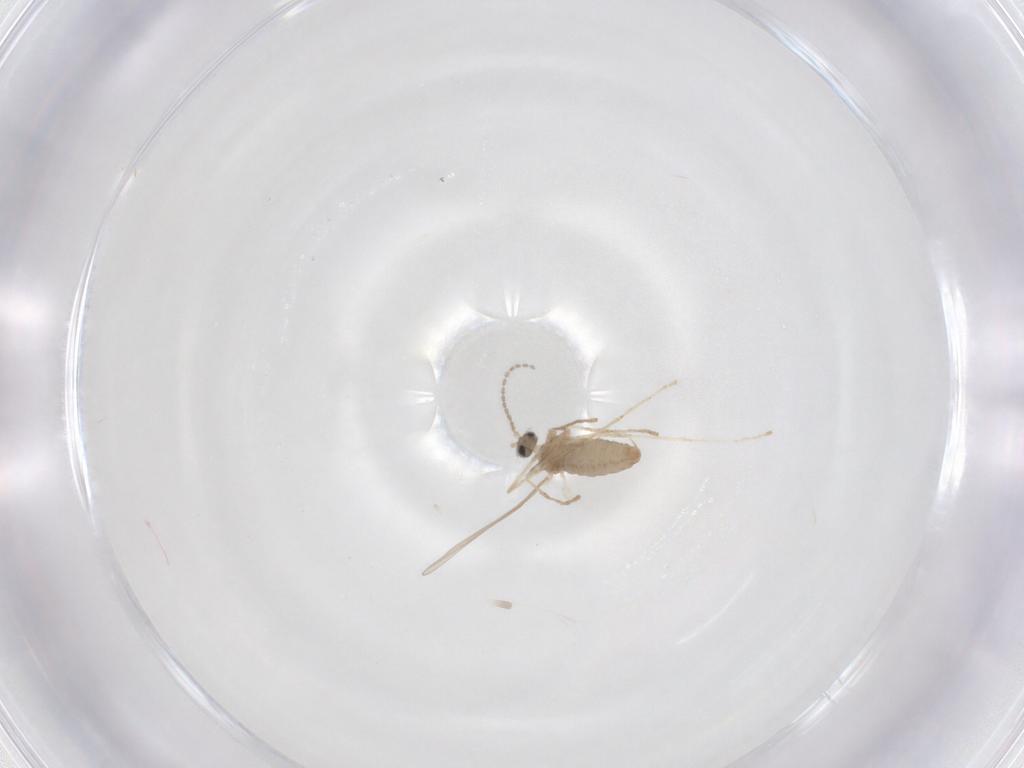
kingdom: Animalia
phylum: Arthropoda
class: Insecta
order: Diptera
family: Cecidomyiidae
